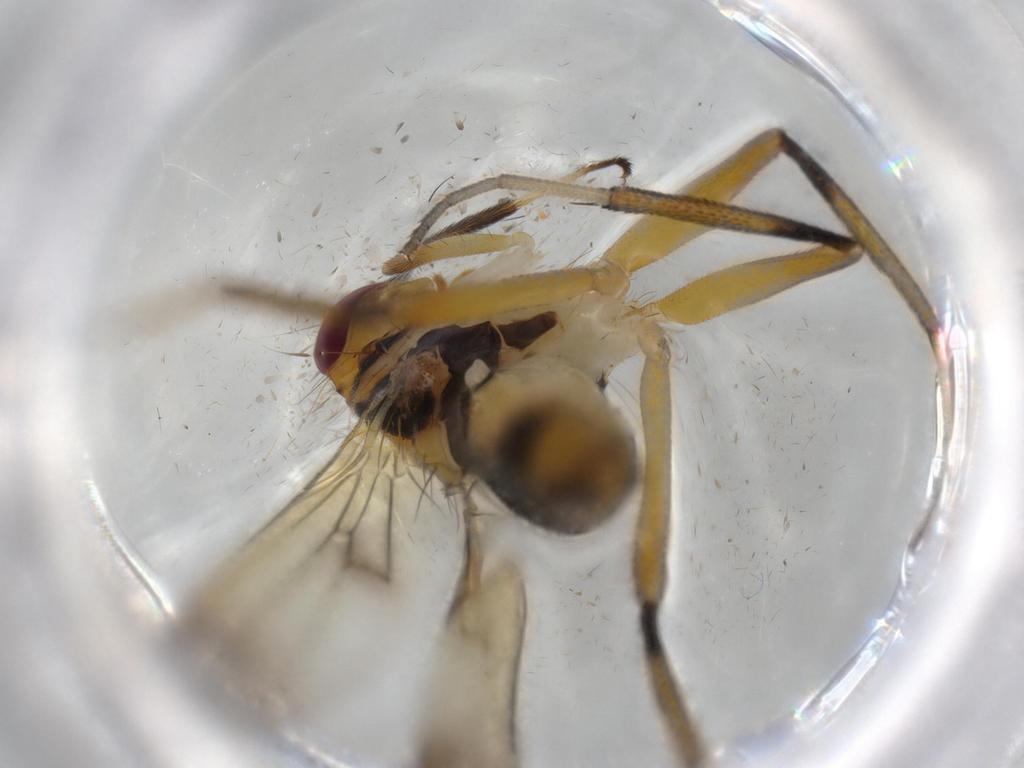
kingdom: Animalia
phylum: Arthropoda
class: Insecta
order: Diptera
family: Clusiidae
